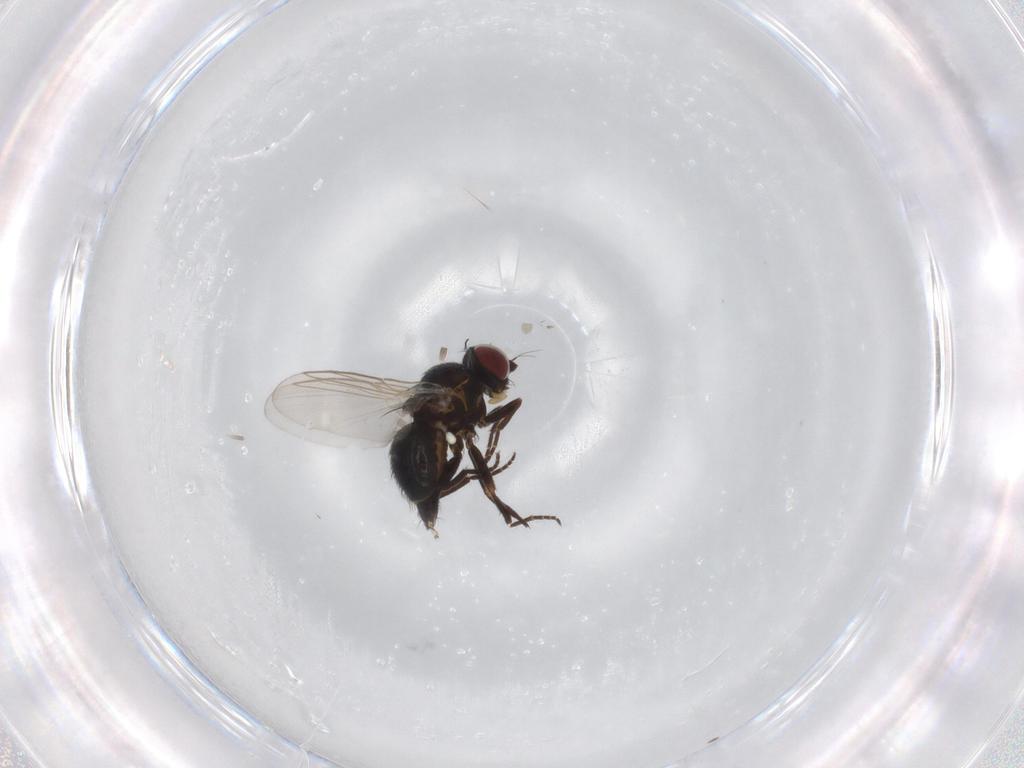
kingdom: Animalia
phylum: Arthropoda
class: Insecta
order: Diptera
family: Agromyzidae
